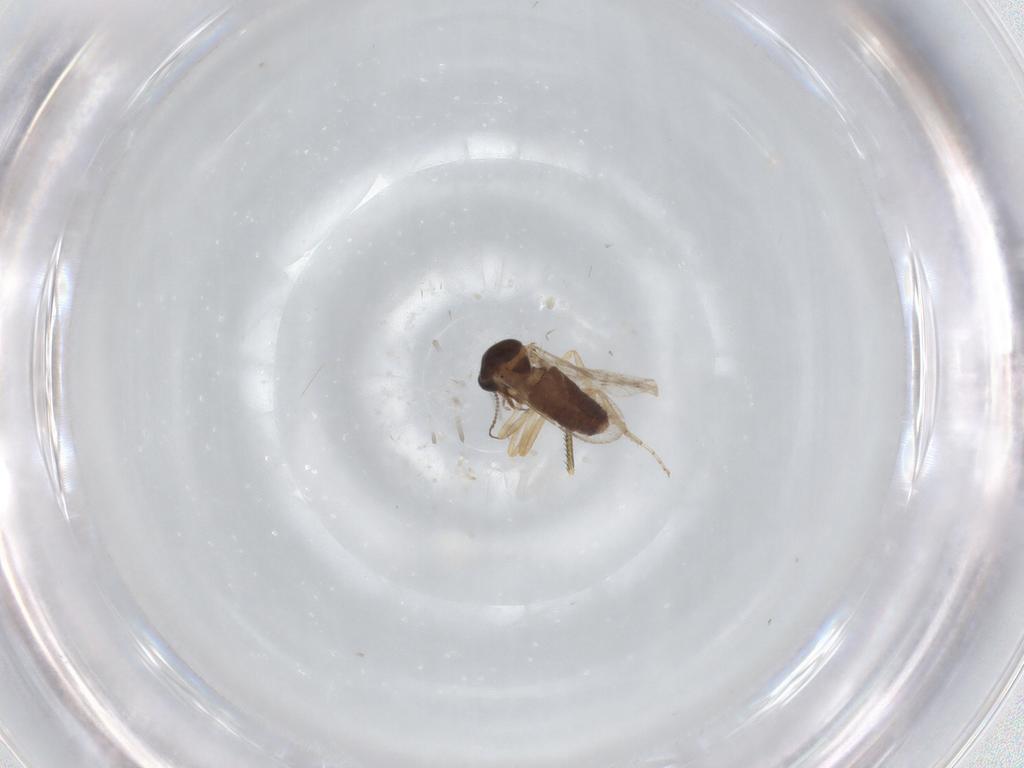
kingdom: Animalia
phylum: Arthropoda
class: Insecta
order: Diptera
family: Ceratopogonidae
